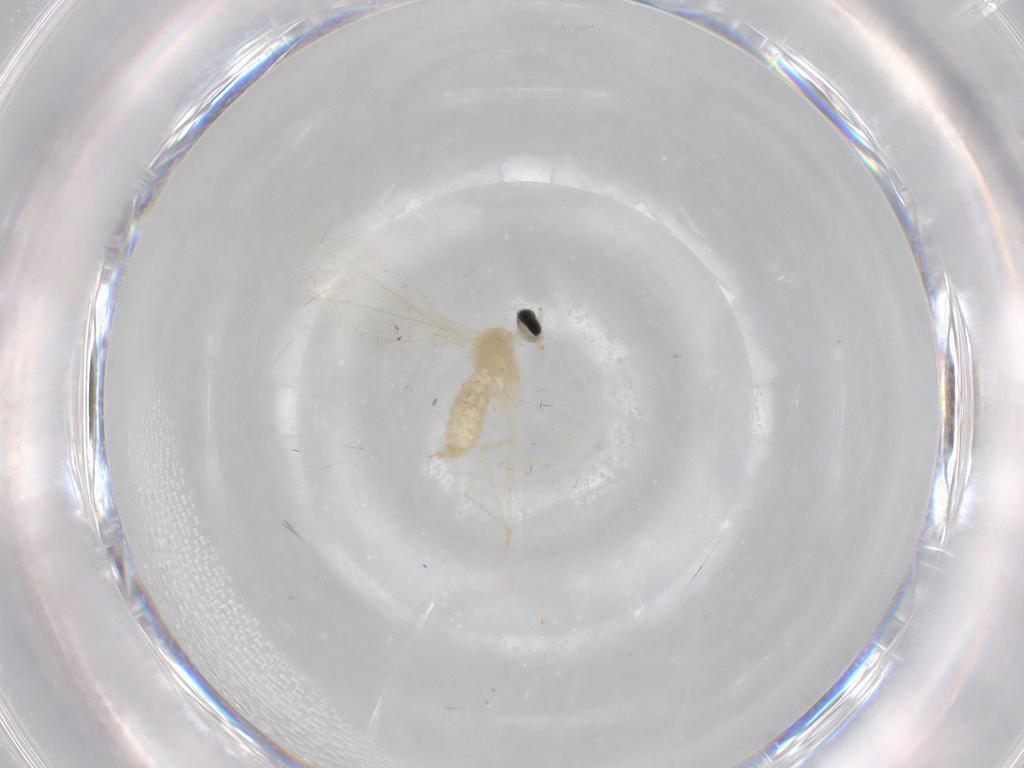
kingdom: Animalia
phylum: Arthropoda
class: Insecta
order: Diptera
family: Cecidomyiidae
